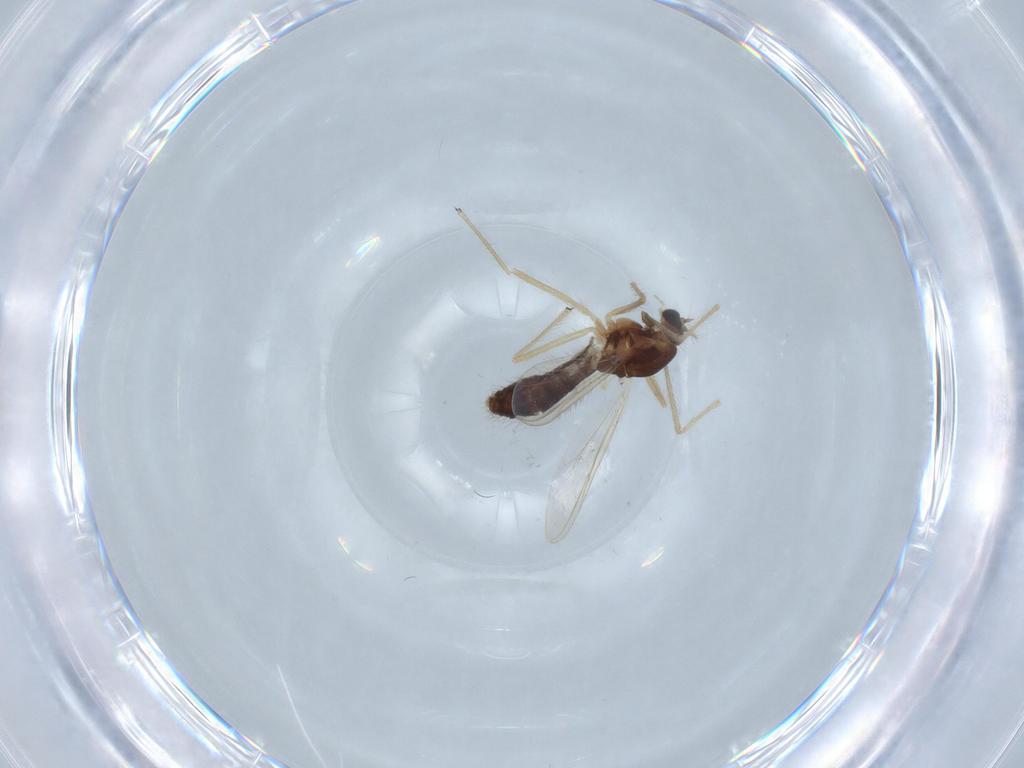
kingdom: Animalia
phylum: Arthropoda
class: Insecta
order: Diptera
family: Chironomidae
